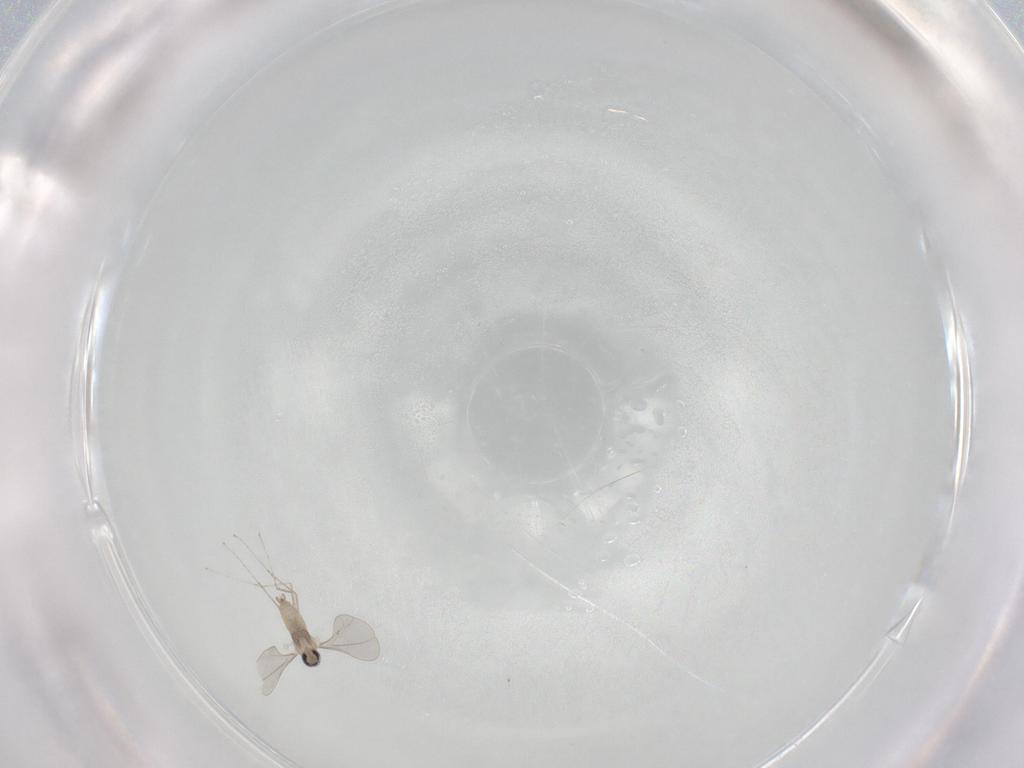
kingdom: Animalia
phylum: Arthropoda
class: Insecta
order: Diptera
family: Cecidomyiidae
